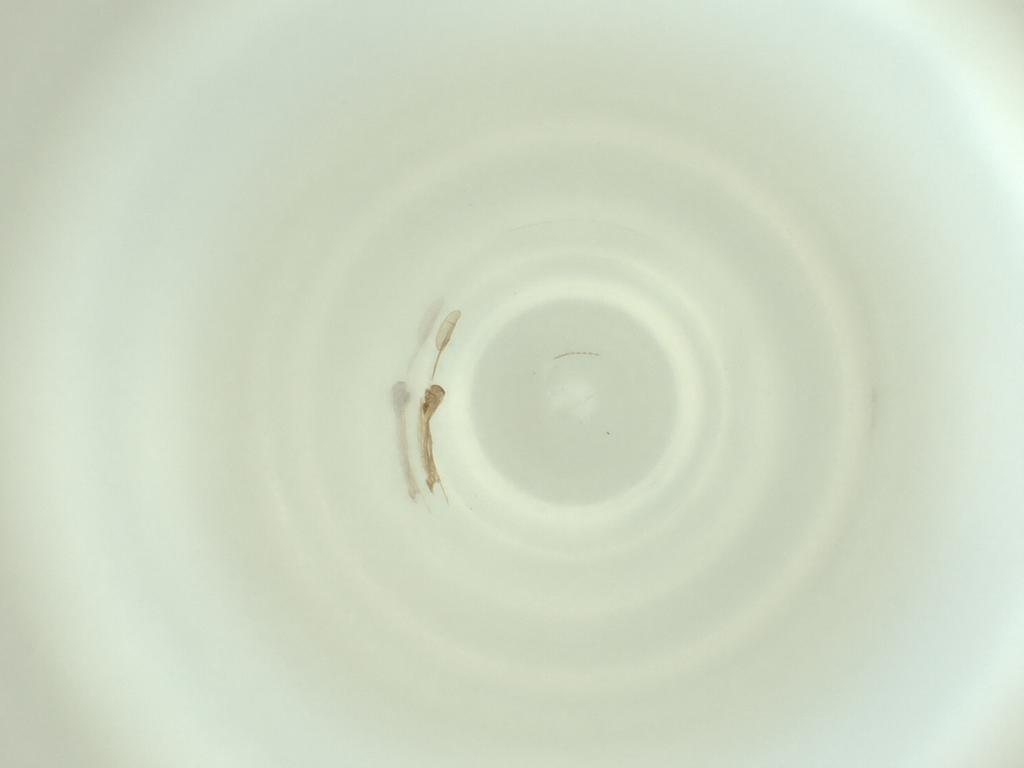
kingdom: Animalia
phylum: Arthropoda
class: Insecta
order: Diptera
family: Cecidomyiidae
